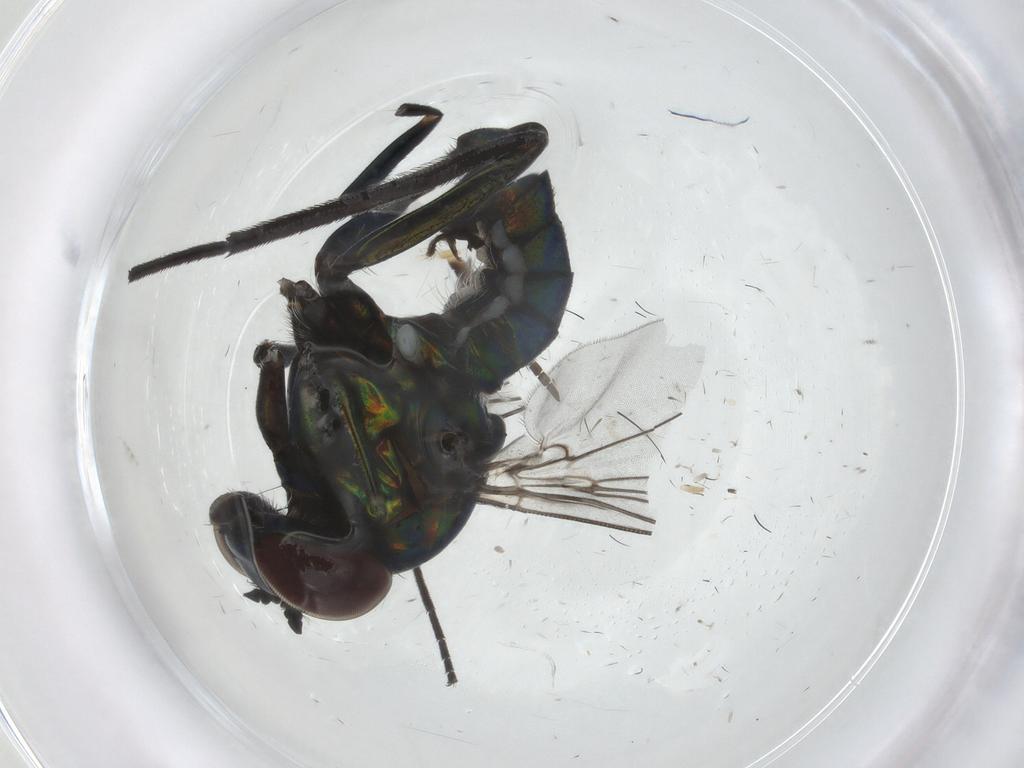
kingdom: Animalia
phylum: Arthropoda
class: Insecta
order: Diptera
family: Dolichopodidae
